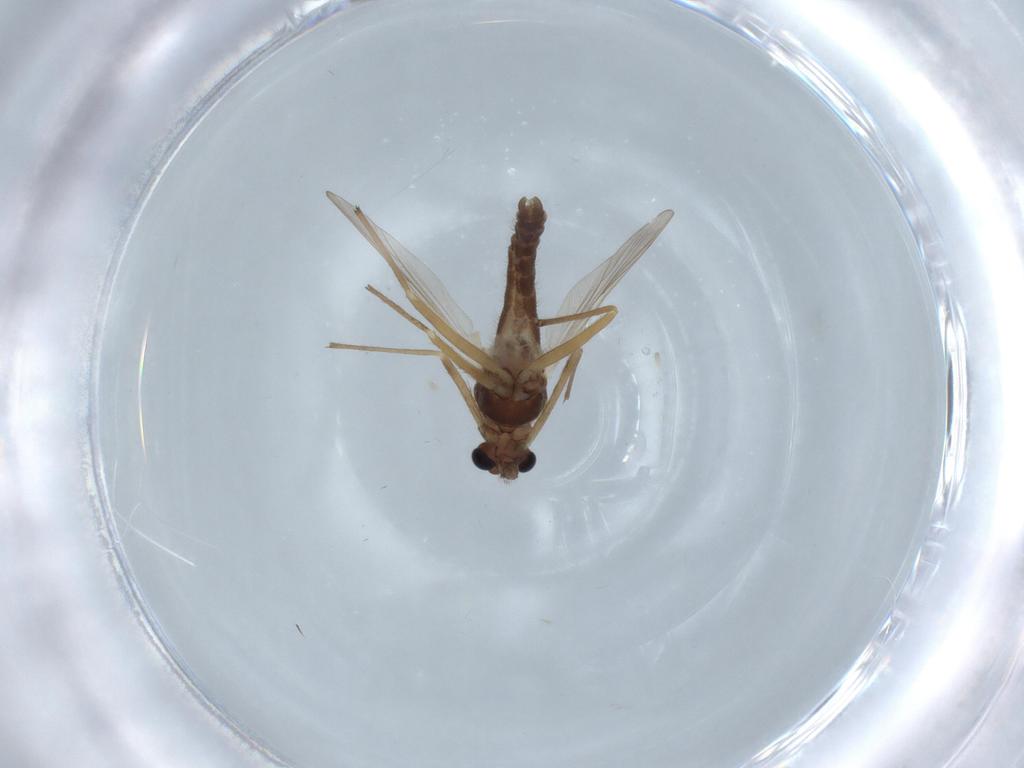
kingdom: Animalia
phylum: Arthropoda
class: Insecta
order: Diptera
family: Chironomidae
